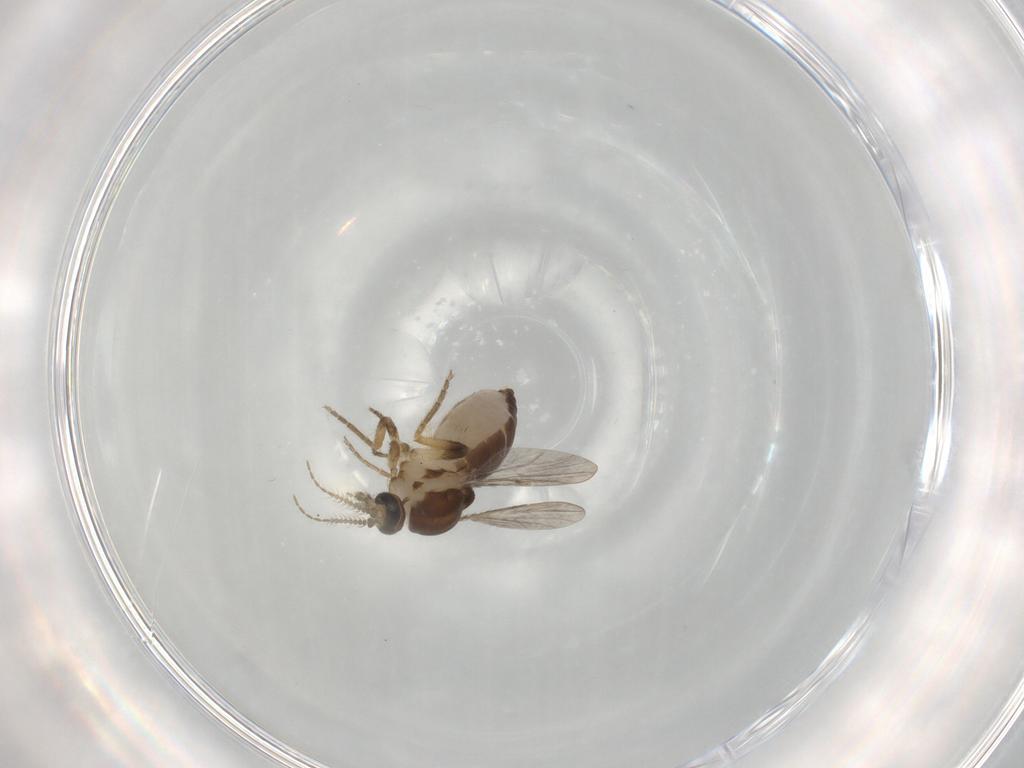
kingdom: Animalia
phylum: Arthropoda
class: Insecta
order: Diptera
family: Ceratopogonidae
